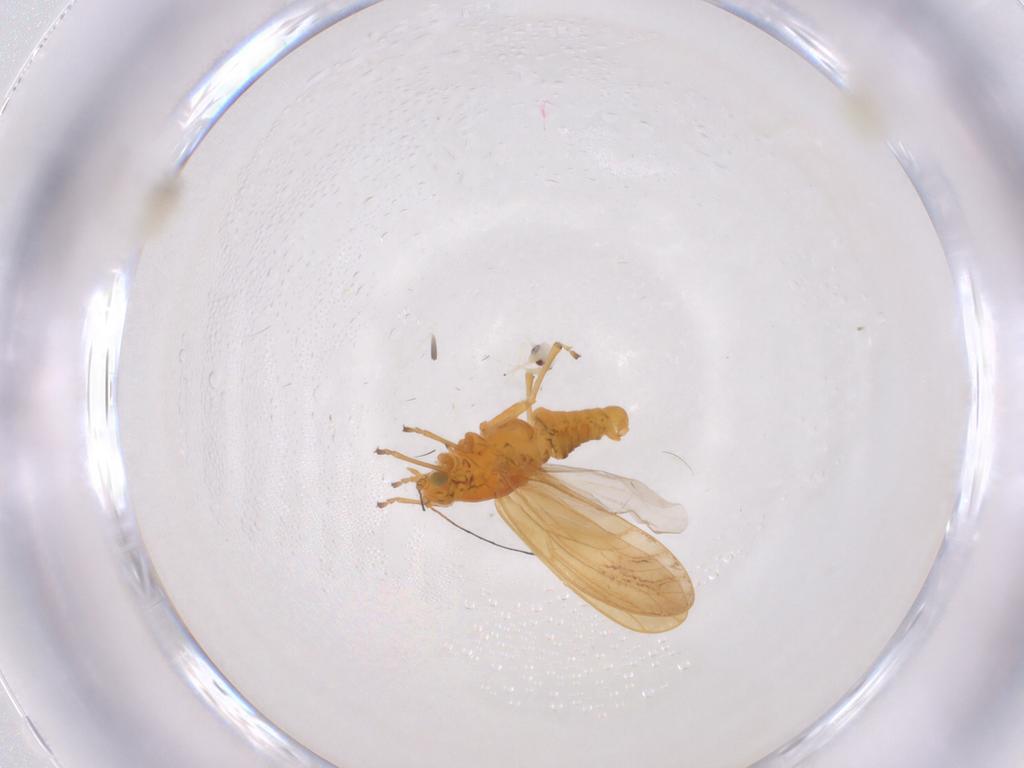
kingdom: Animalia
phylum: Arthropoda
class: Insecta
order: Hemiptera
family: Aleyrodidae
